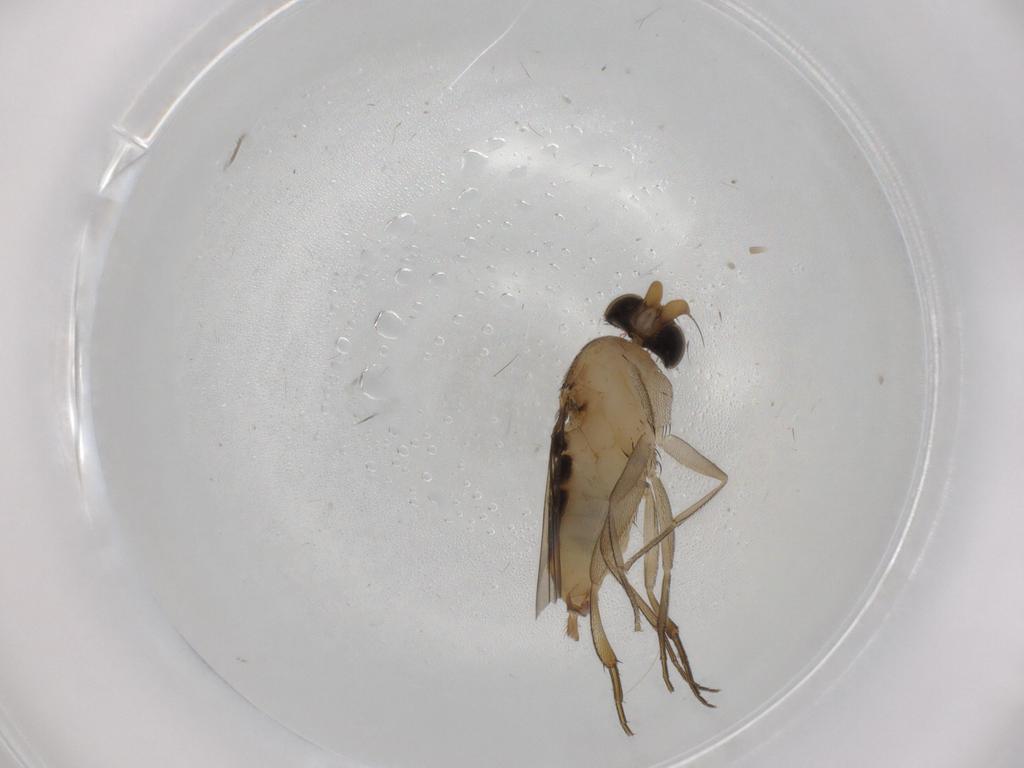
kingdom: Animalia
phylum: Arthropoda
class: Insecta
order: Diptera
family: Phoridae
